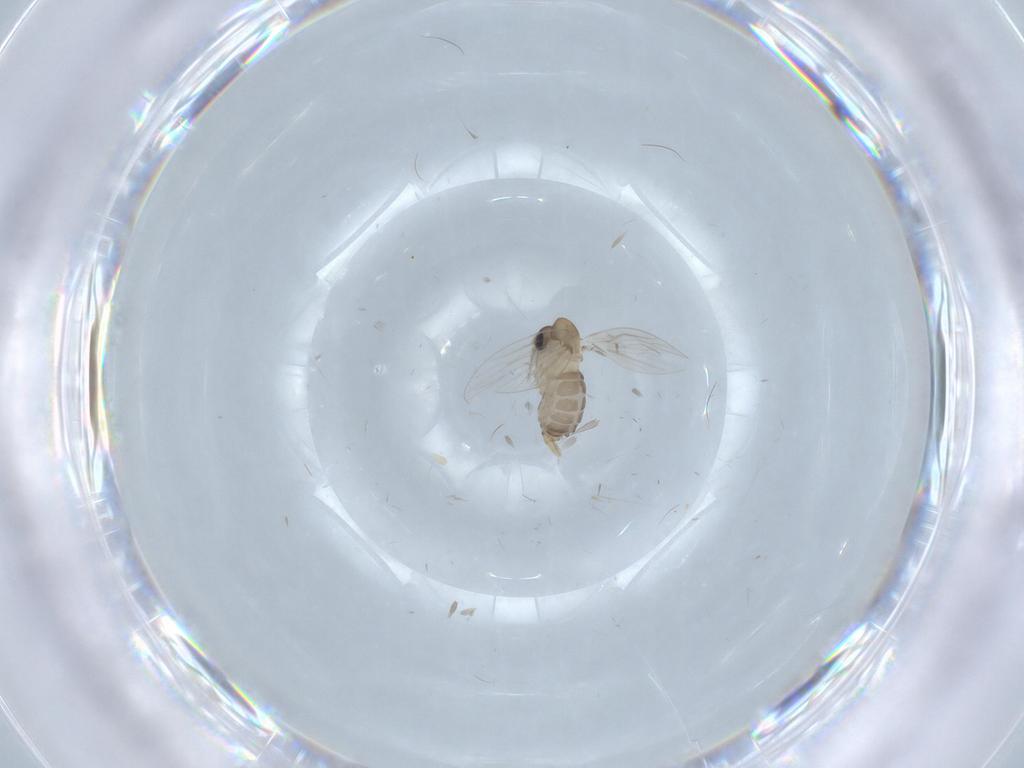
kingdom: Animalia
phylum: Arthropoda
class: Insecta
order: Diptera
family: Psychodidae
